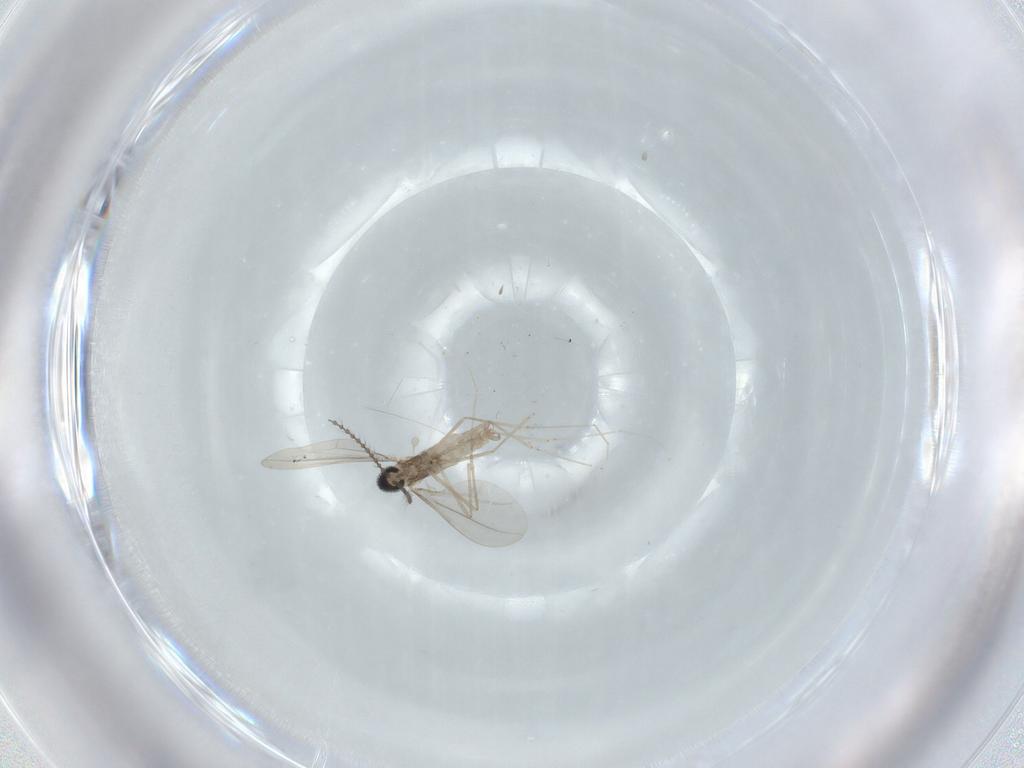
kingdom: Animalia
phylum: Arthropoda
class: Insecta
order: Diptera
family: Cecidomyiidae
